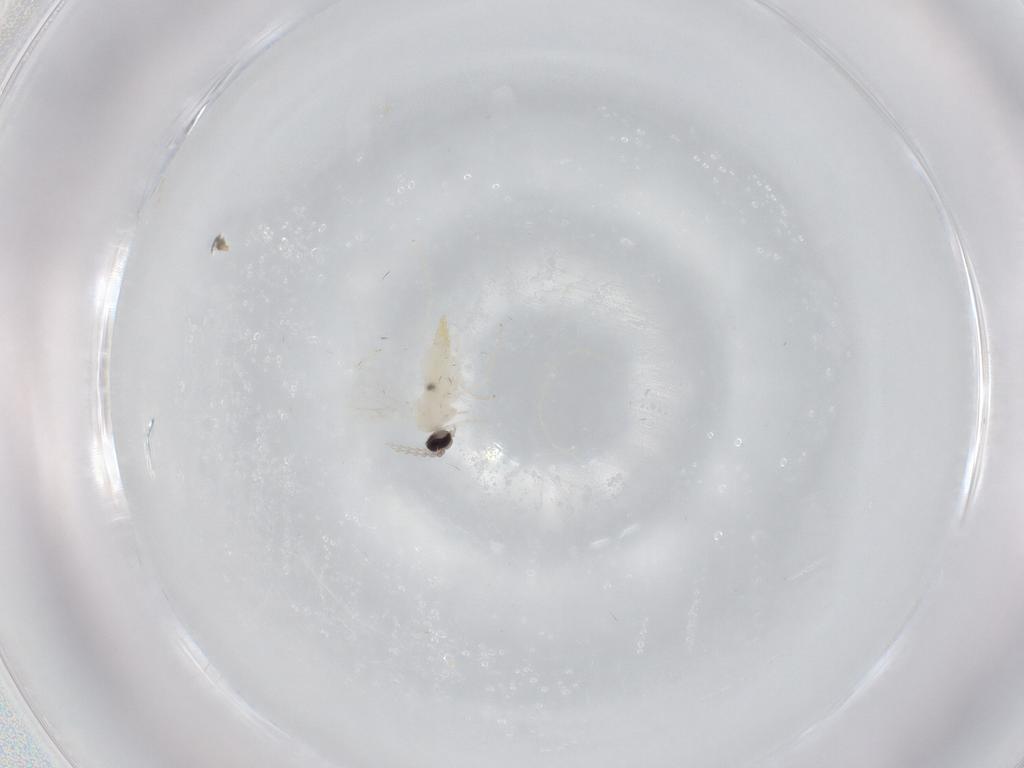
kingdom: Animalia
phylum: Arthropoda
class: Insecta
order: Diptera
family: Cecidomyiidae
